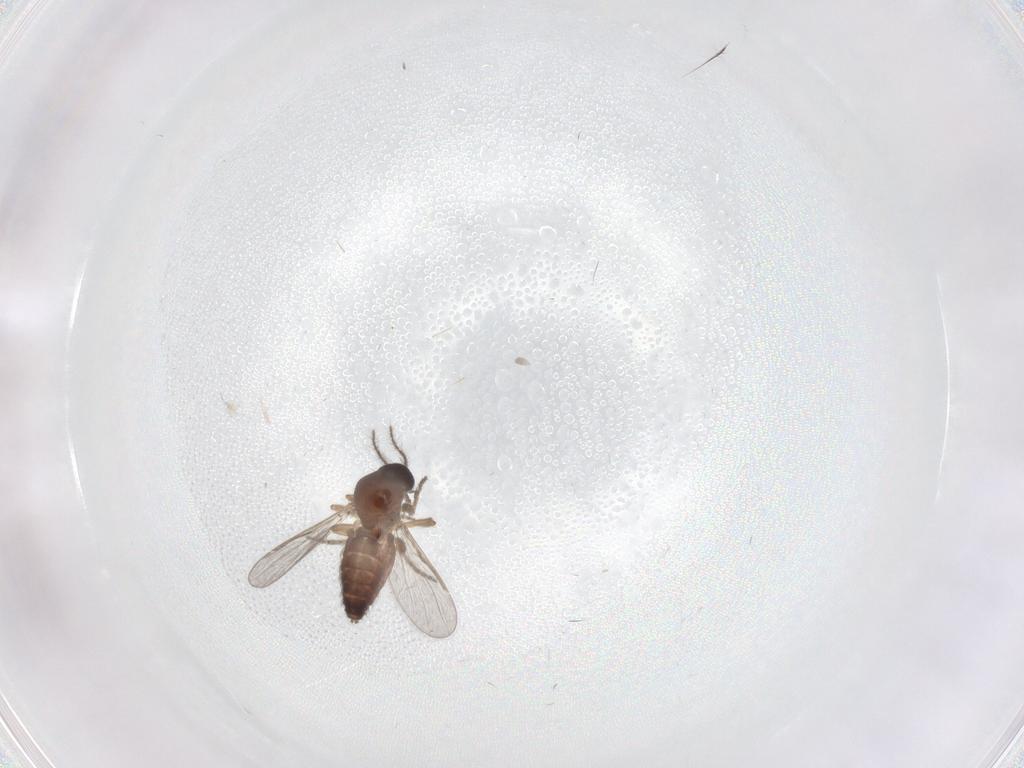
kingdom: Animalia
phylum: Arthropoda
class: Insecta
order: Diptera
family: Ceratopogonidae
